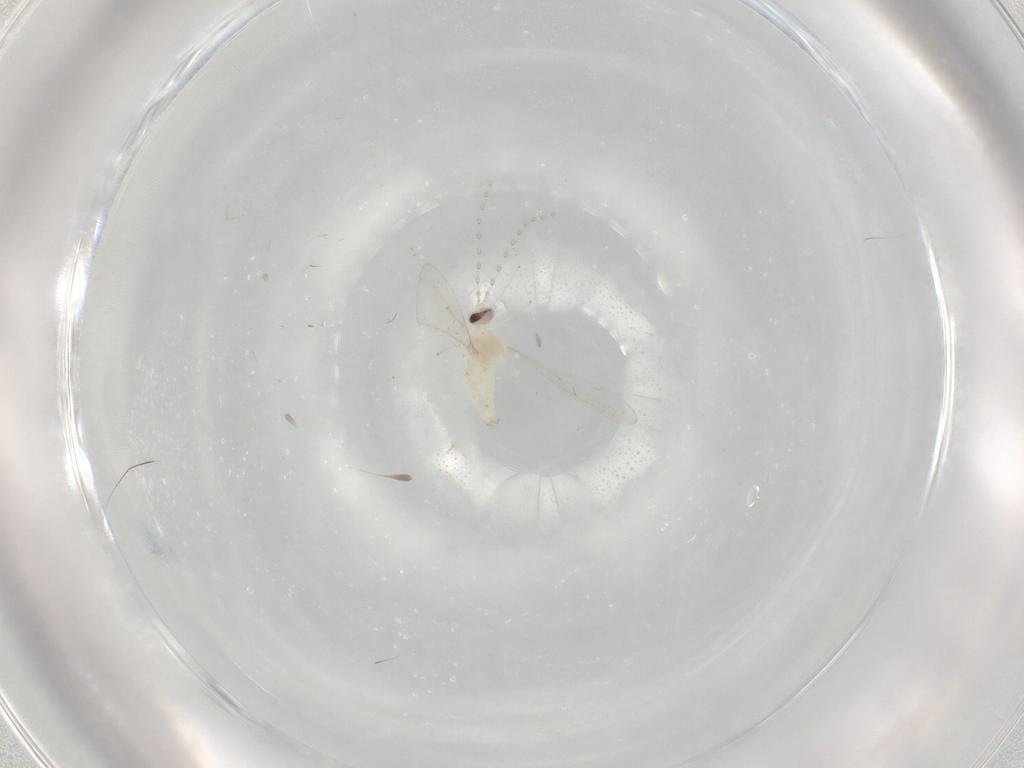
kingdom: Animalia
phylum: Arthropoda
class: Insecta
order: Diptera
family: Cecidomyiidae
